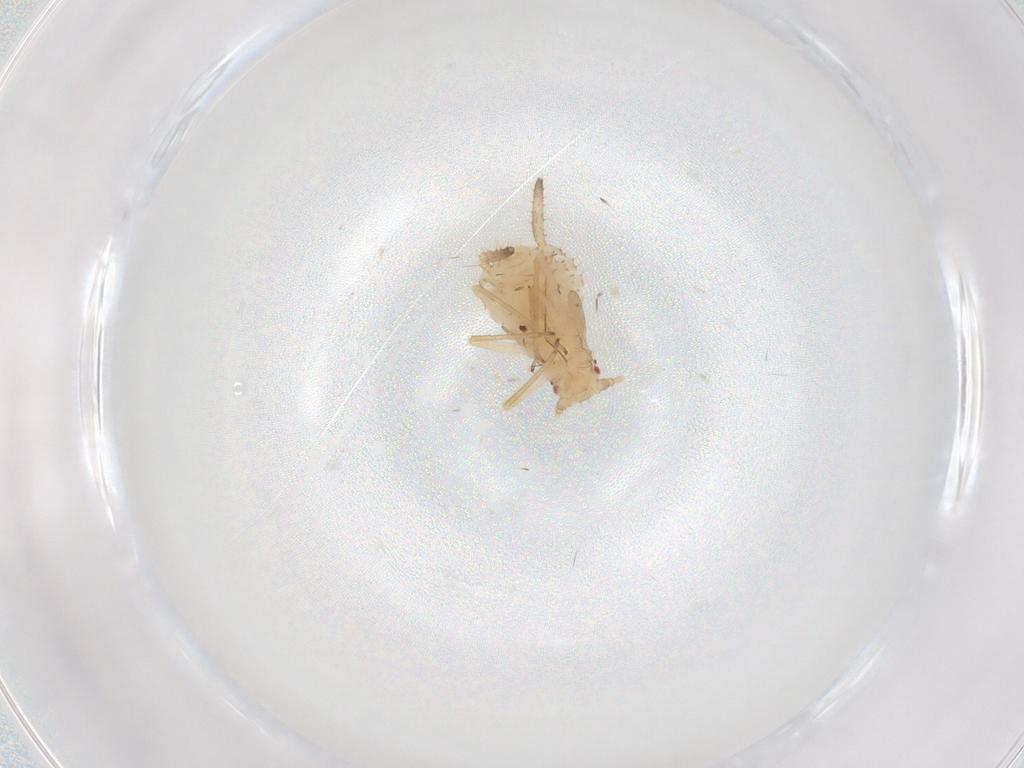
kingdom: Animalia
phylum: Arthropoda
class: Insecta
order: Hemiptera
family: Aphididae
